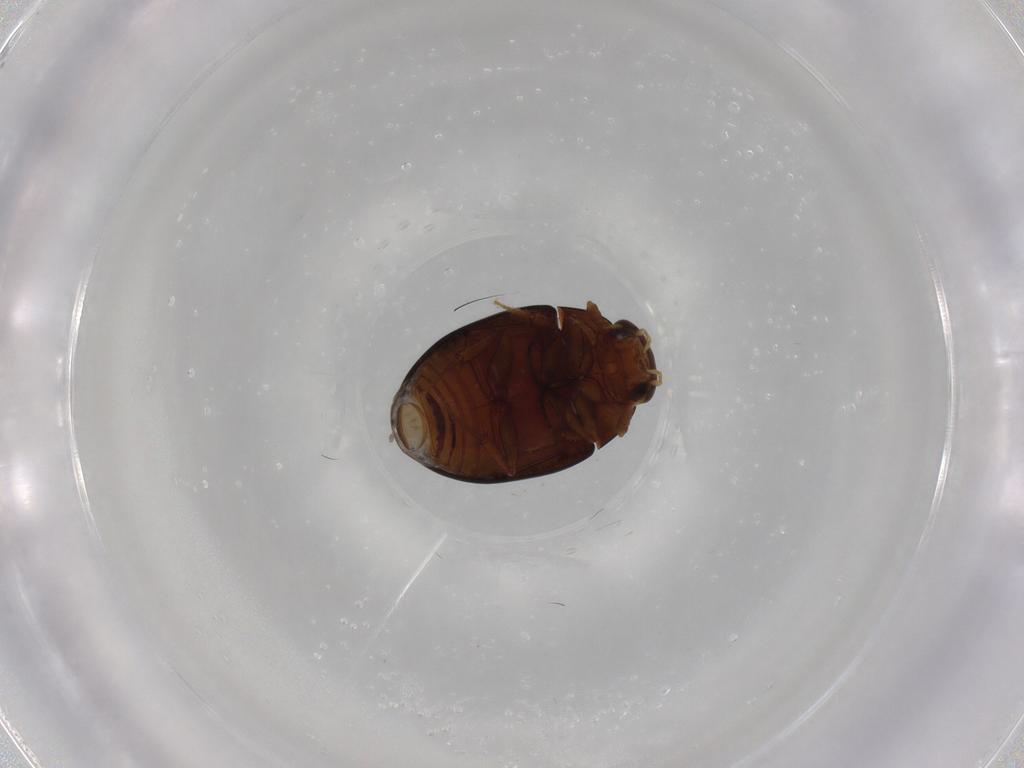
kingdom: Animalia
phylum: Arthropoda
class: Insecta
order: Coleoptera
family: Hydrophilidae
